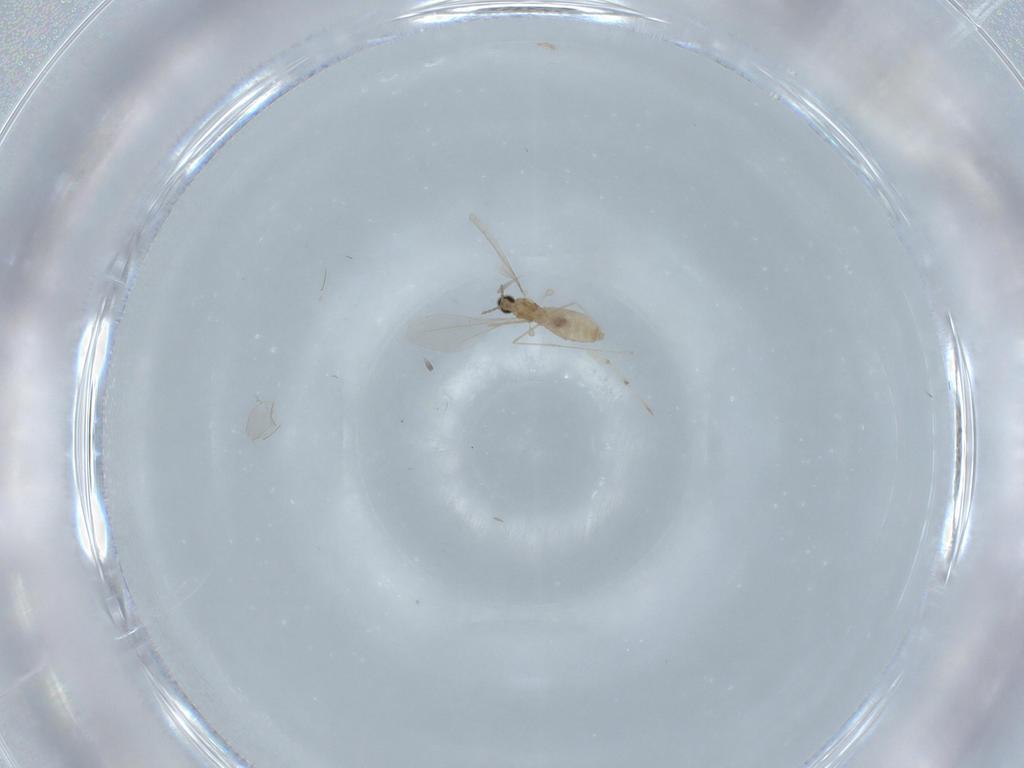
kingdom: Animalia
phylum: Arthropoda
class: Insecta
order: Diptera
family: Cecidomyiidae
